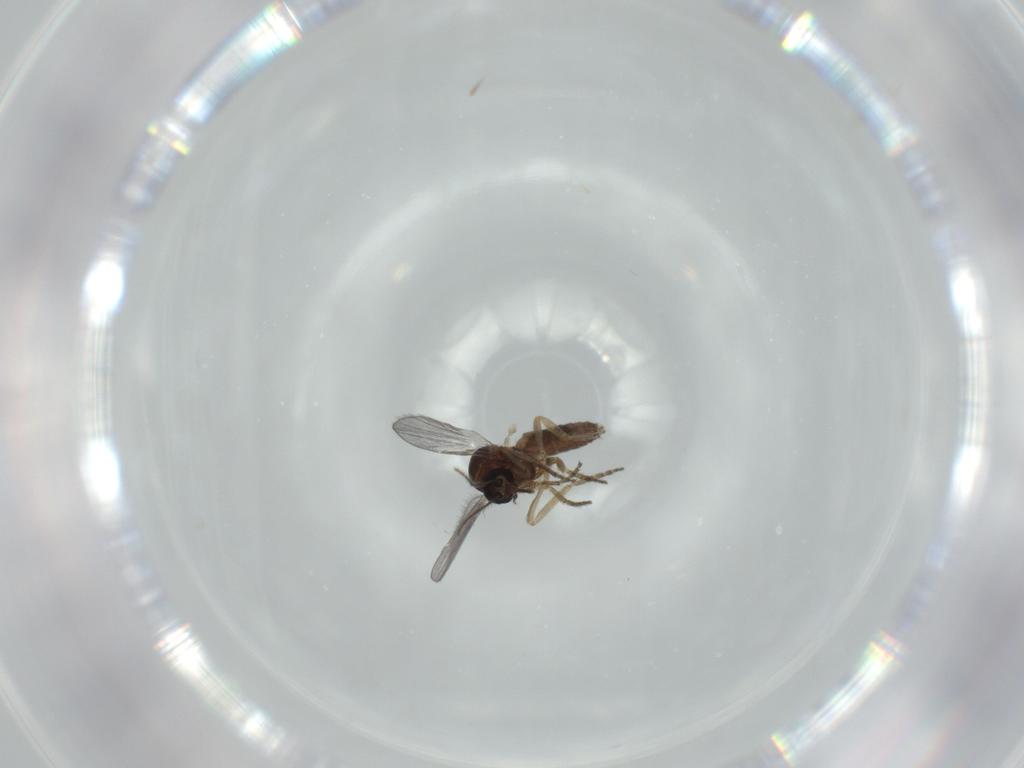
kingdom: Animalia
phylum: Arthropoda
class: Insecta
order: Diptera
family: Ceratopogonidae
